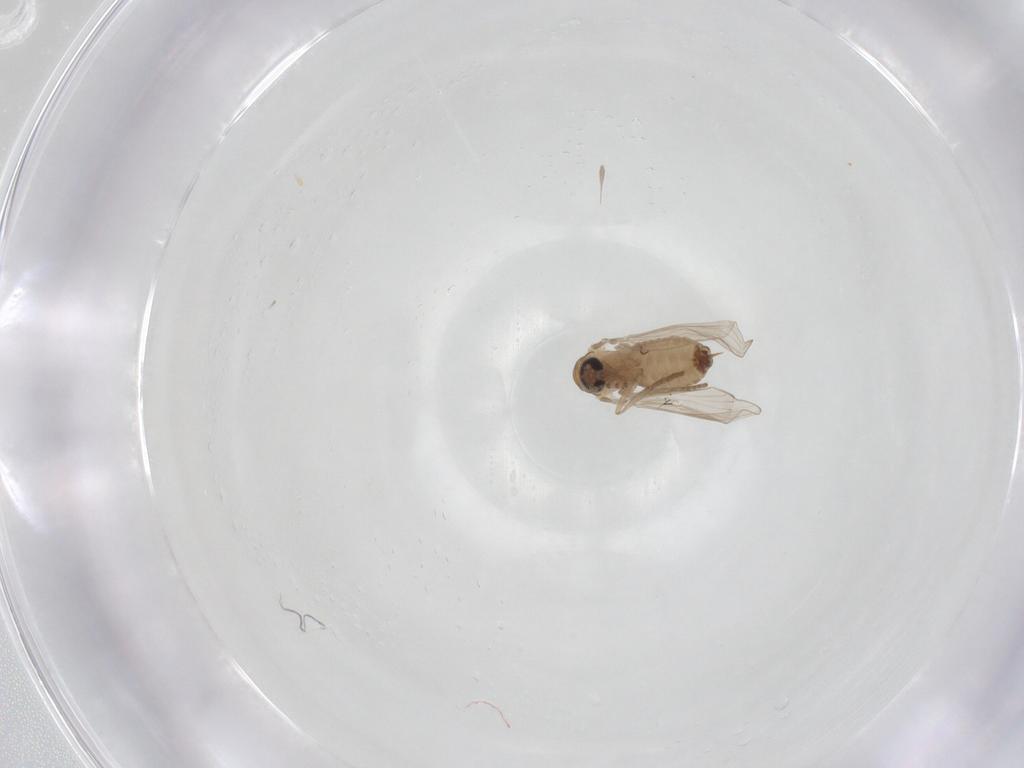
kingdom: Animalia
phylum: Arthropoda
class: Insecta
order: Diptera
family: Psychodidae
